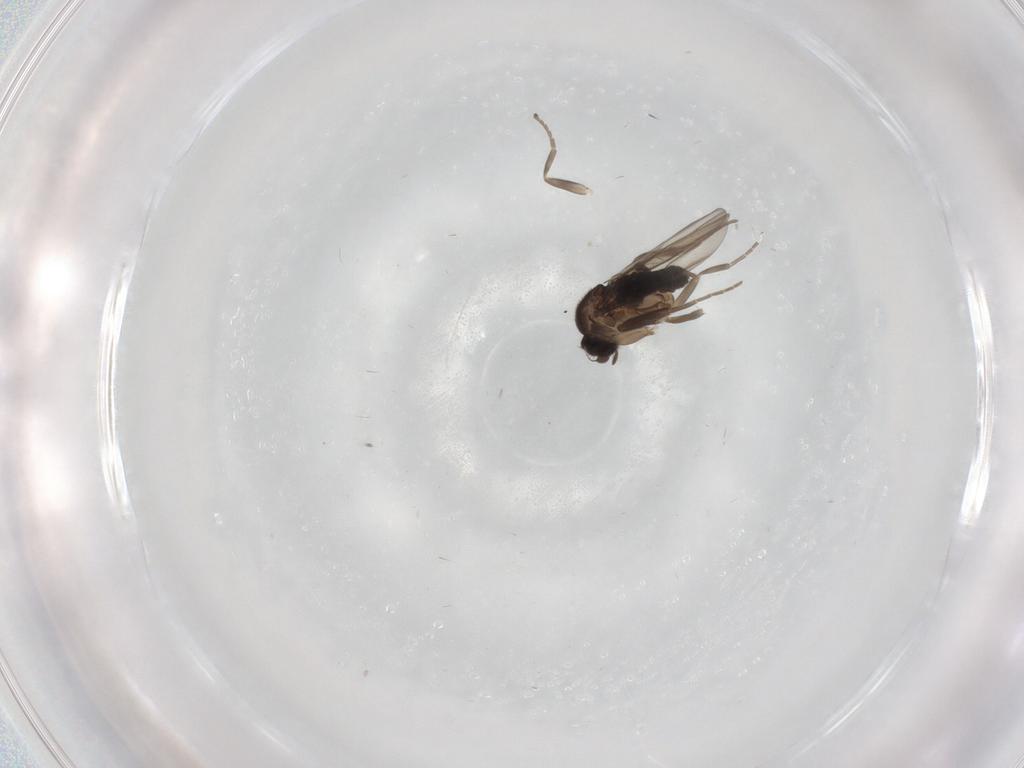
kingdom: Animalia
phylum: Arthropoda
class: Insecta
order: Diptera
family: Phoridae
